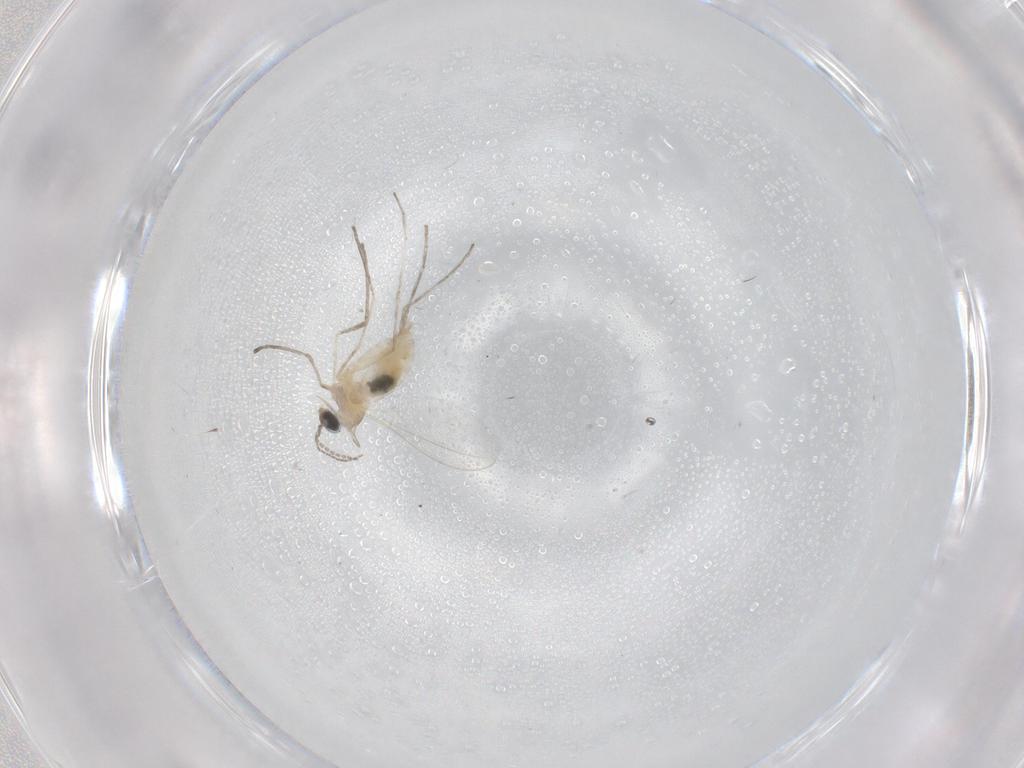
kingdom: Animalia
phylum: Arthropoda
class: Insecta
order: Diptera
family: Cecidomyiidae
